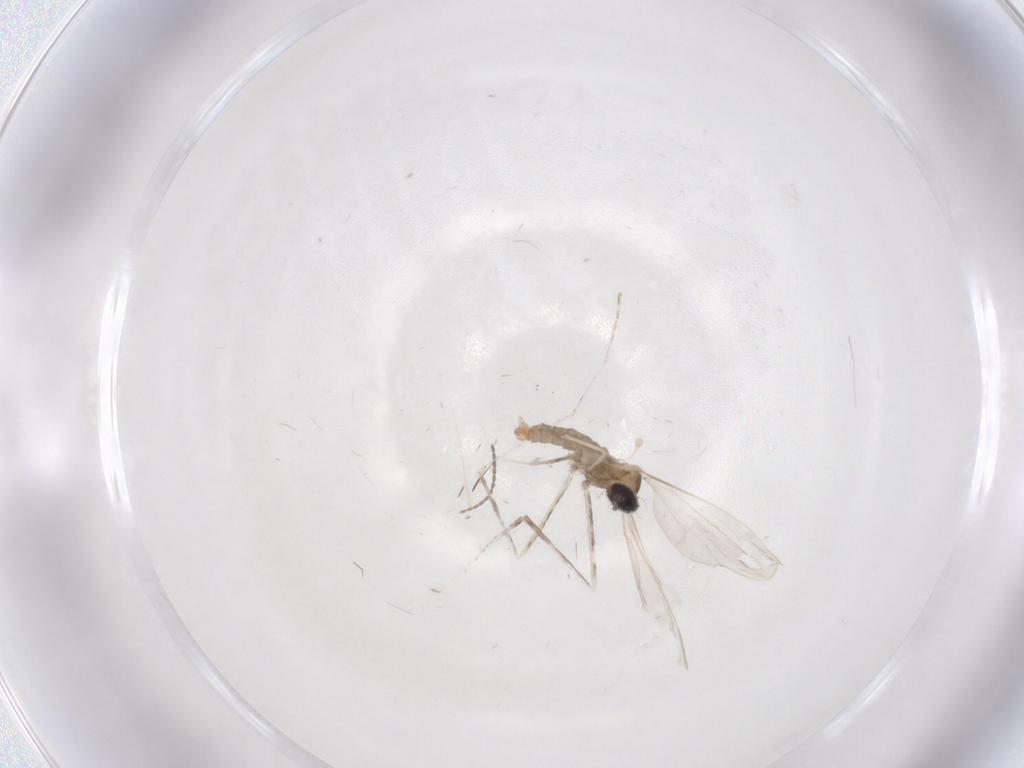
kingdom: Animalia
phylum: Arthropoda
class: Insecta
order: Diptera
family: Cecidomyiidae
